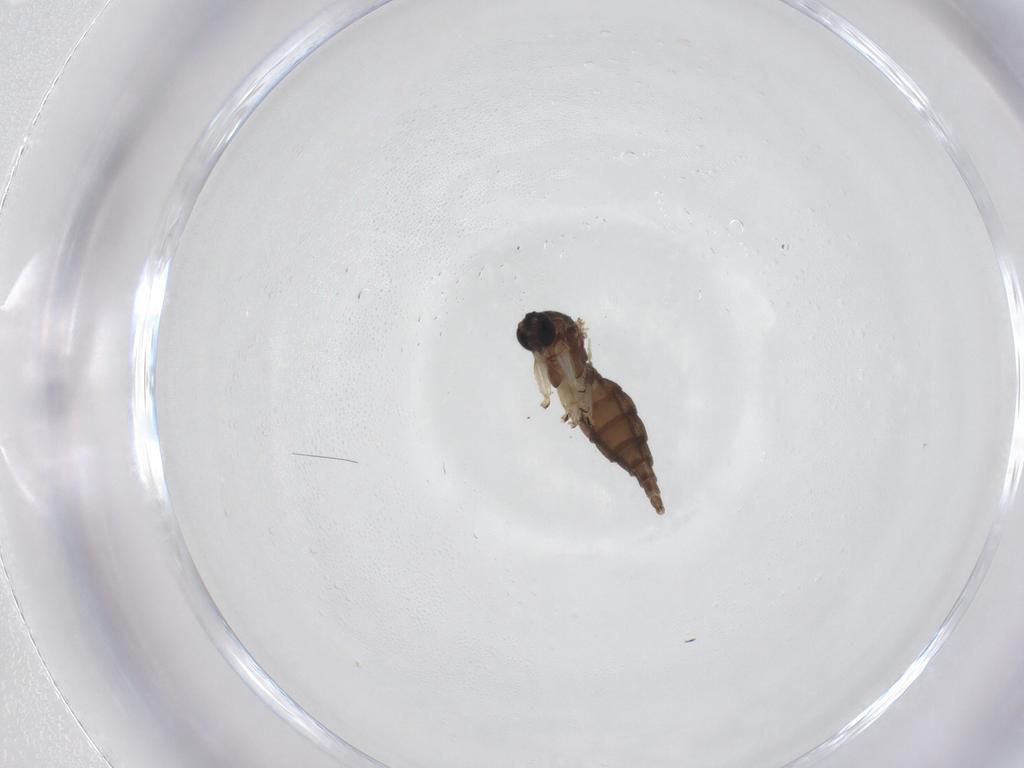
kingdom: Animalia
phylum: Arthropoda
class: Insecta
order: Diptera
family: Sciaridae
